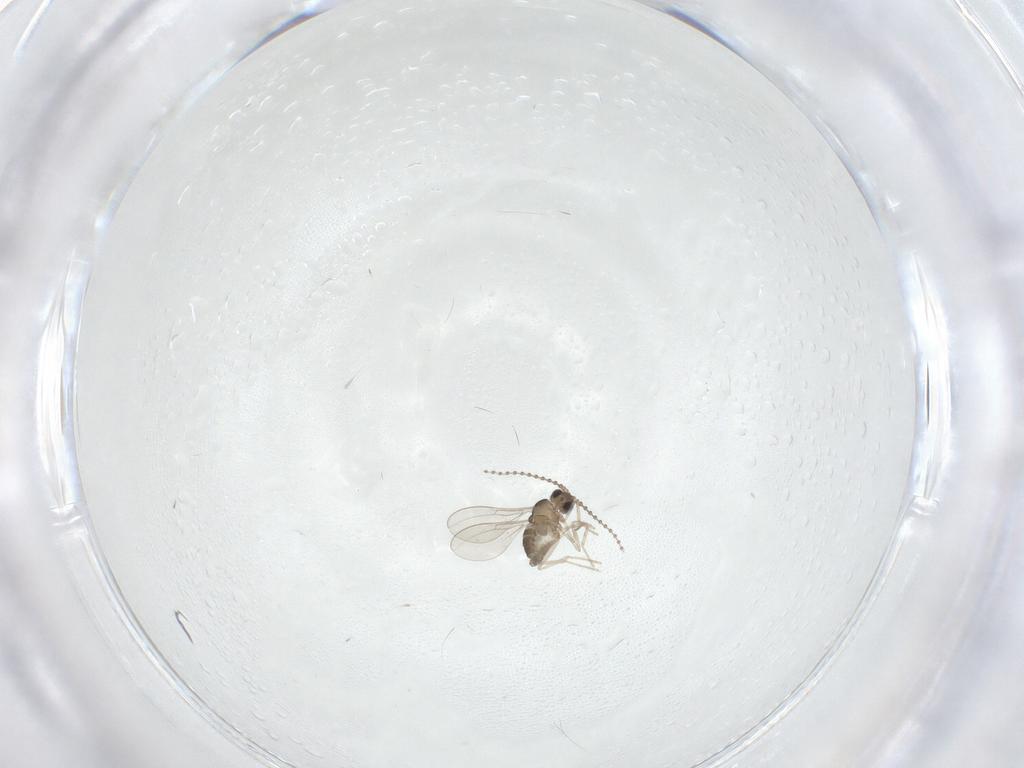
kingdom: Animalia
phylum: Arthropoda
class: Insecta
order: Diptera
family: Cecidomyiidae
